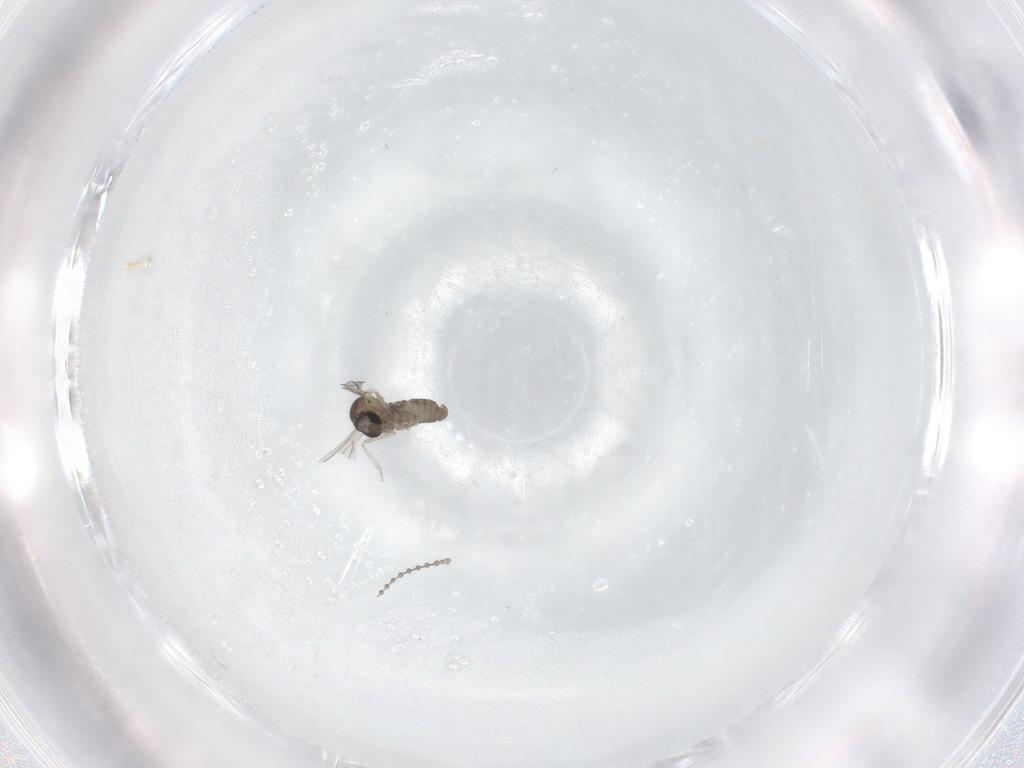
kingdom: Animalia
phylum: Arthropoda
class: Insecta
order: Diptera
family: Cecidomyiidae
